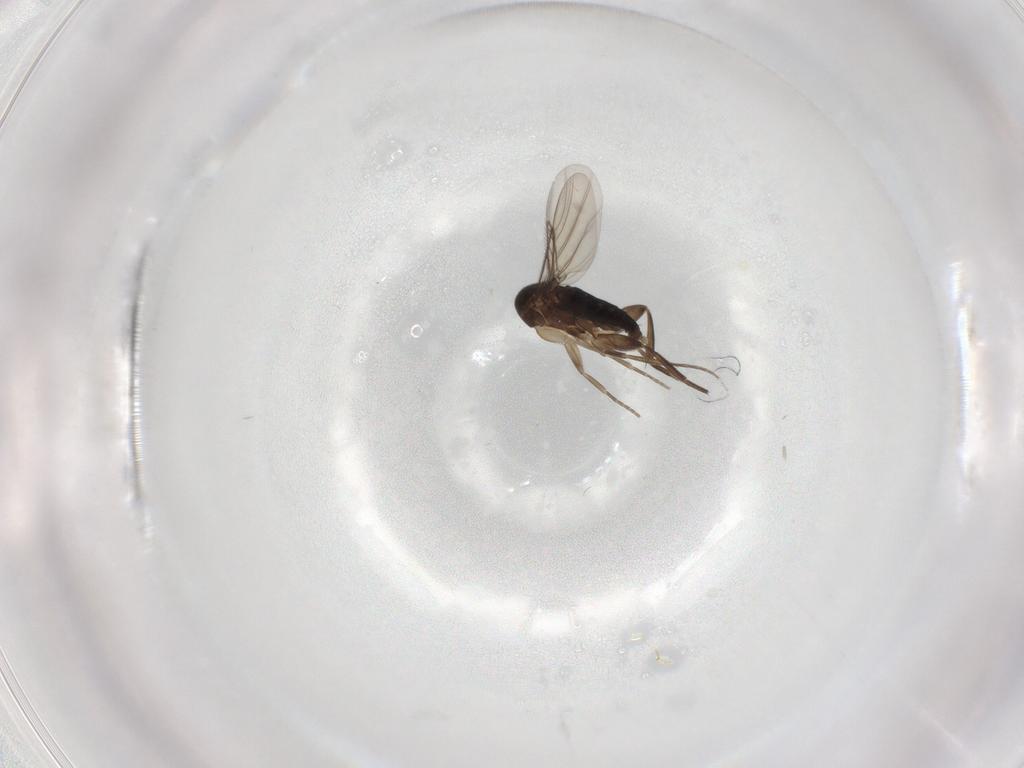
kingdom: Animalia
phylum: Arthropoda
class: Insecta
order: Diptera
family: Phoridae
